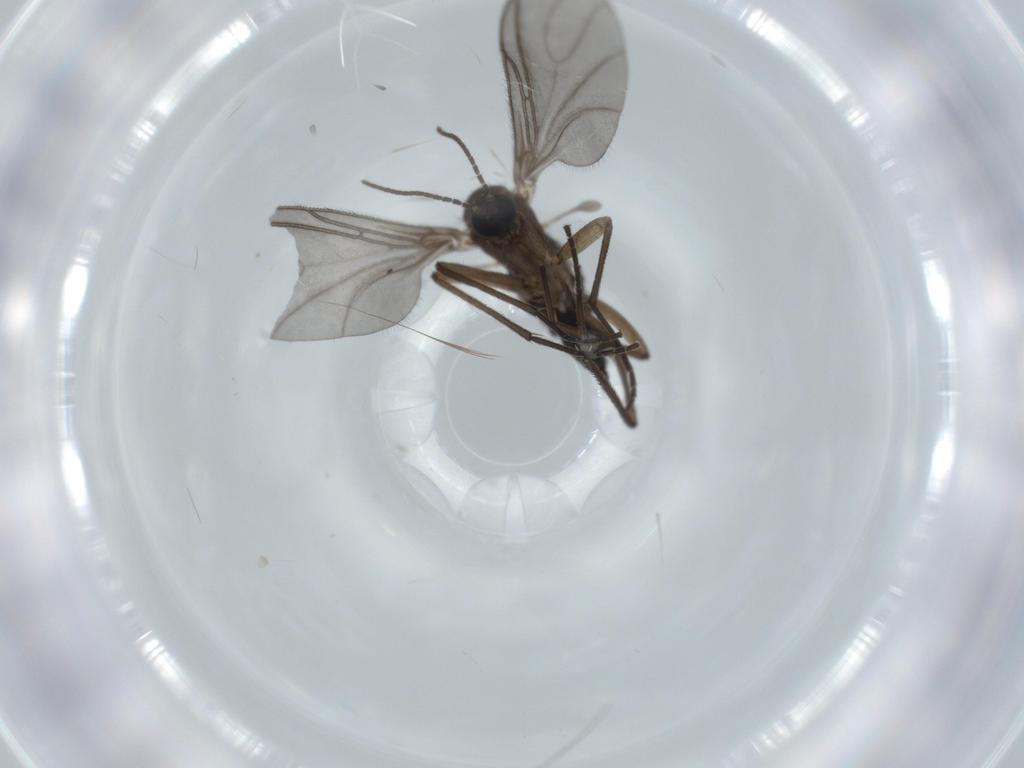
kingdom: Animalia
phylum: Arthropoda
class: Insecta
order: Diptera
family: Sciaridae
